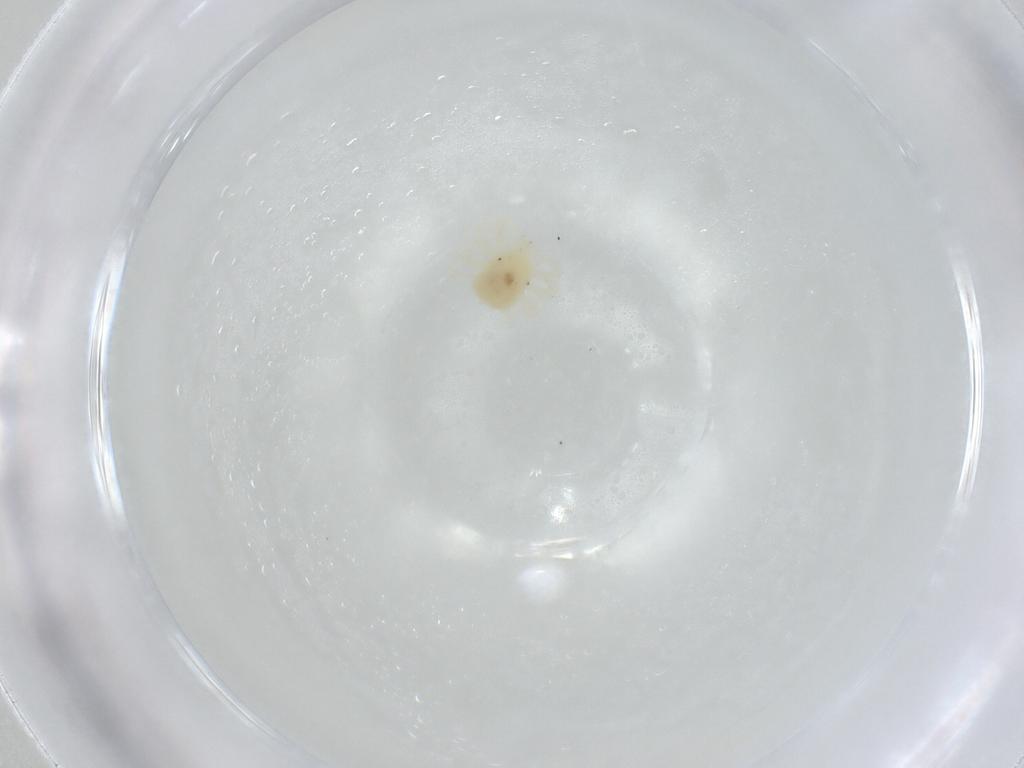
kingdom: Animalia
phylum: Arthropoda
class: Arachnida
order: Trombidiformes
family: Anystidae
